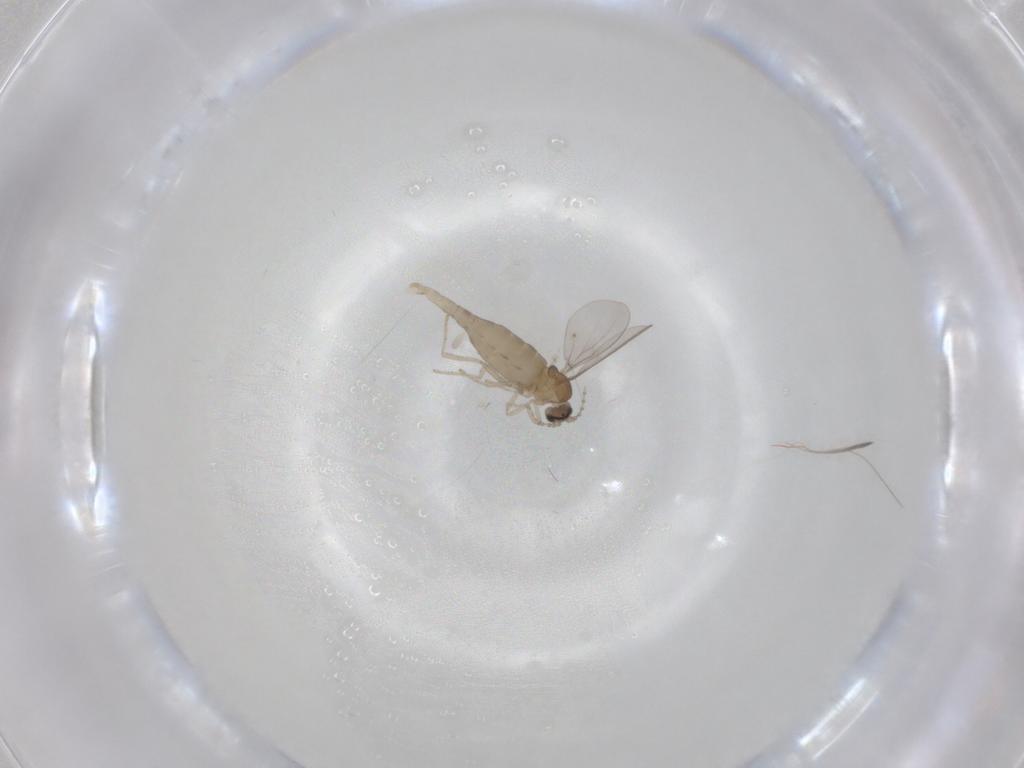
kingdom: Animalia
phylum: Arthropoda
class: Insecta
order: Diptera
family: Cecidomyiidae
